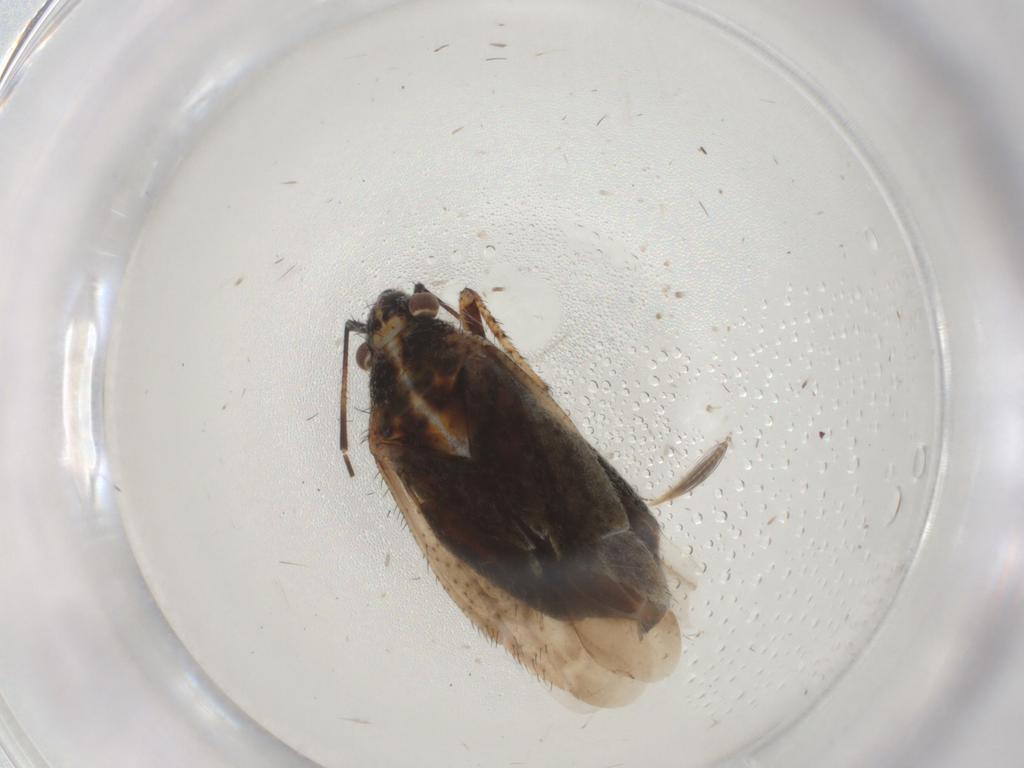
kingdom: Animalia
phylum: Arthropoda
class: Insecta
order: Hemiptera
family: Miridae
